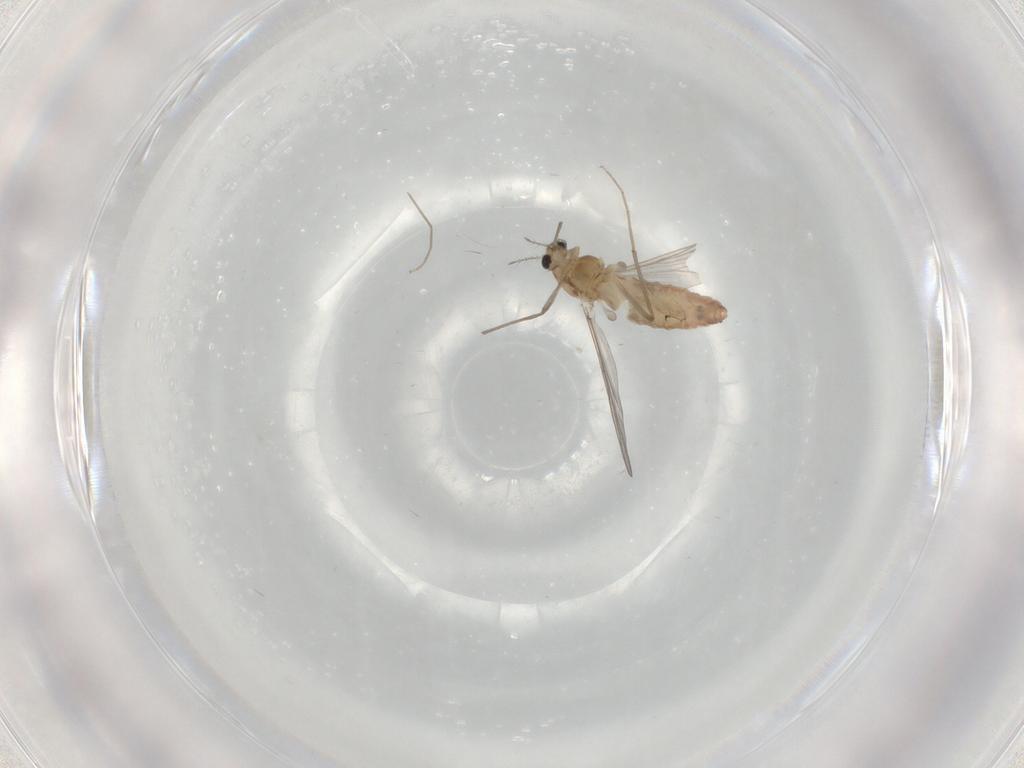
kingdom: Animalia
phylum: Arthropoda
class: Insecta
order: Diptera
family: Chironomidae
